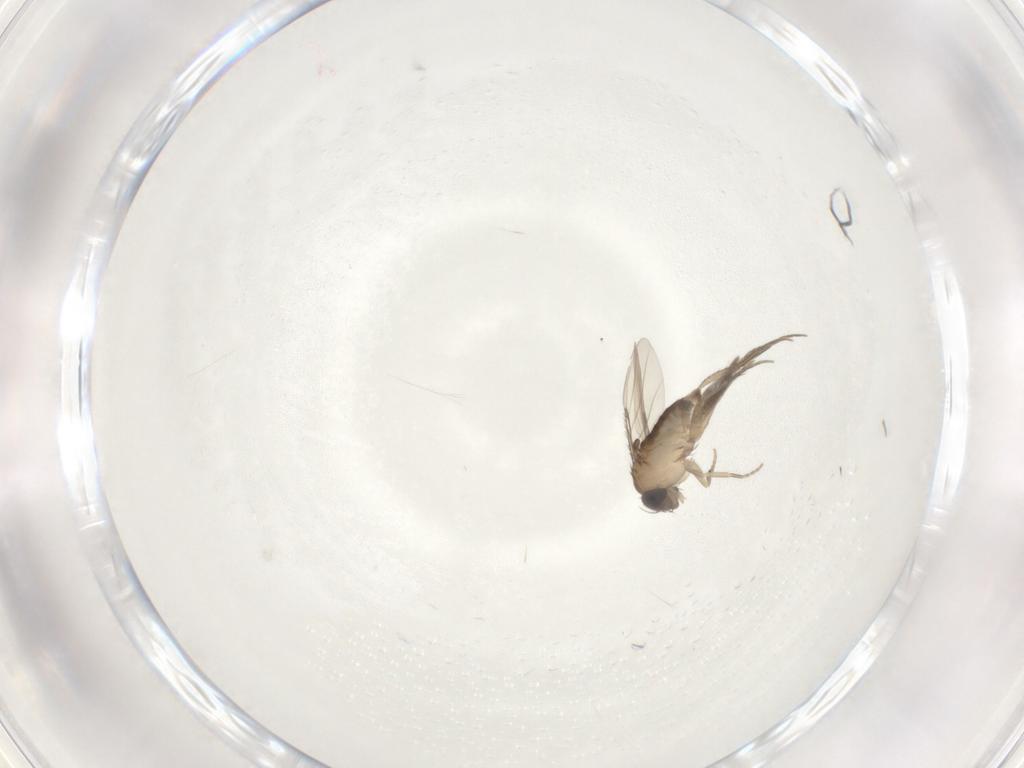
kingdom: Animalia
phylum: Arthropoda
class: Insecta
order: Diptera
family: Phoridae
